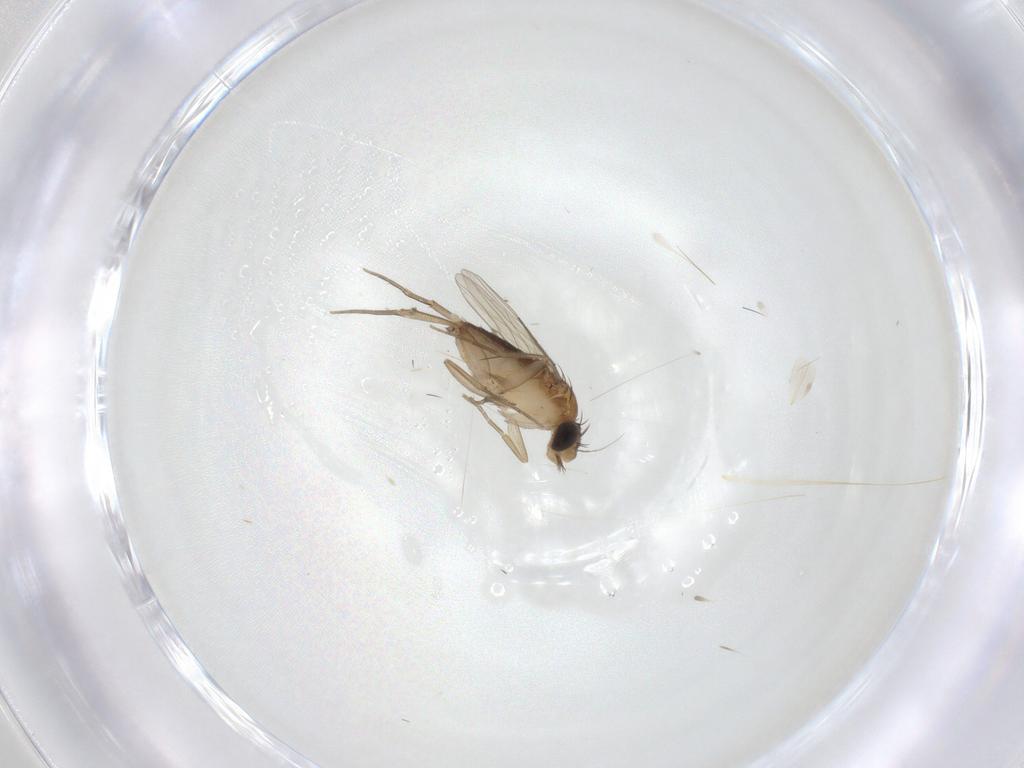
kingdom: Animalia
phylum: Arthropoda
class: Insecta
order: Diptera
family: Phoridae
